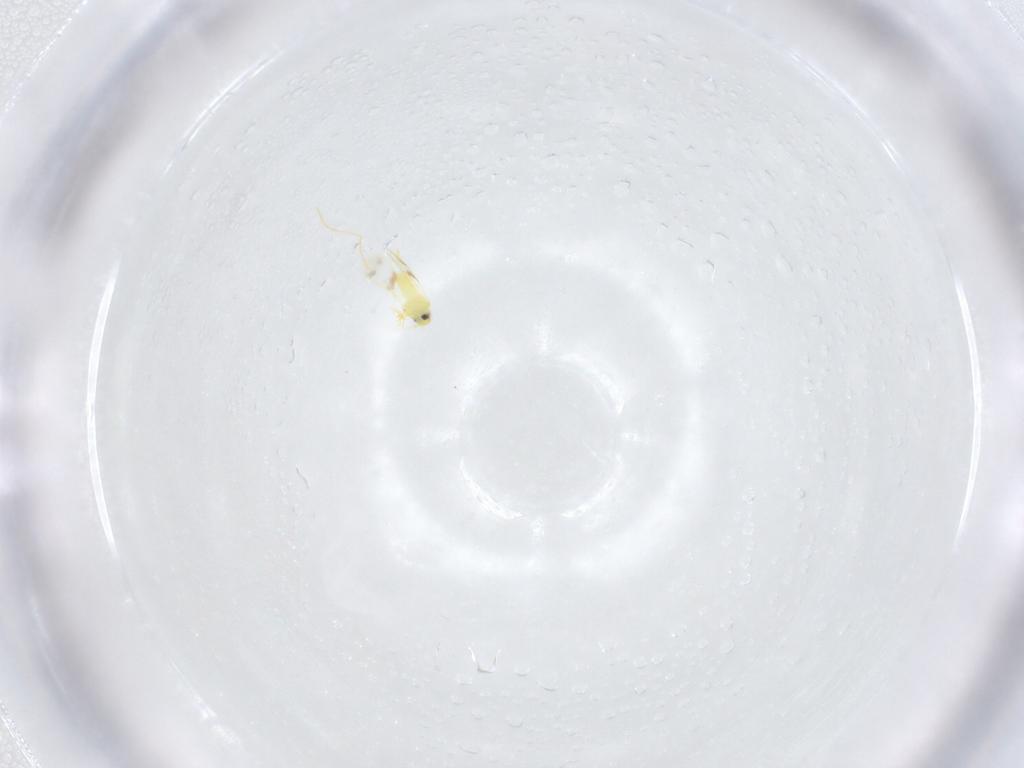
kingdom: Animalia
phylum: Arthropoda
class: Insecta
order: Hemiptera
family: Aleyrodidae
